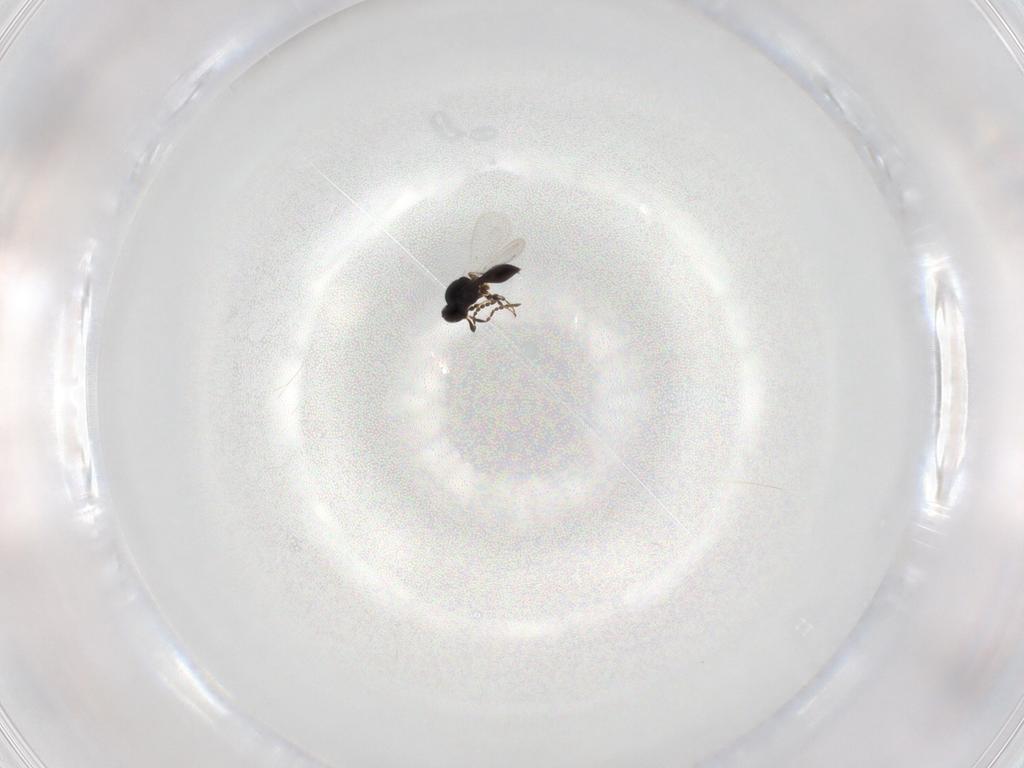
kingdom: Animalia
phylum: Arthropoda
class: Insecta
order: Hymenoptera
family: Platygastridae
